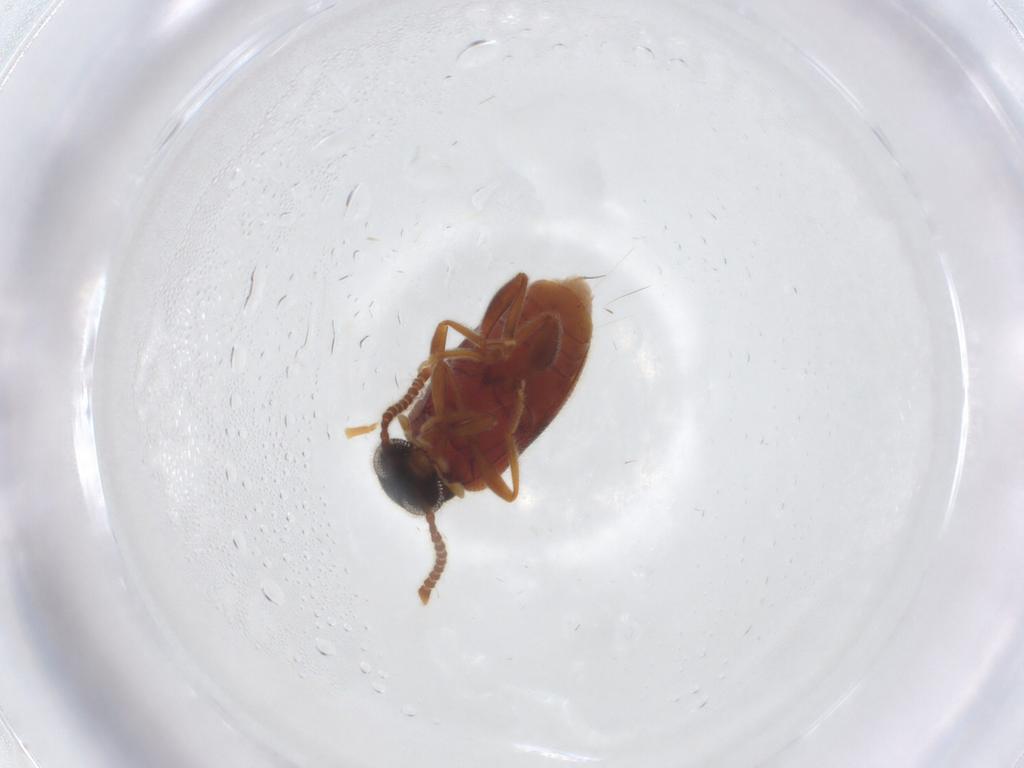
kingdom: Animalia
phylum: Arthropoda
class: Insecta
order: Coleoptera
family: Aderidae
